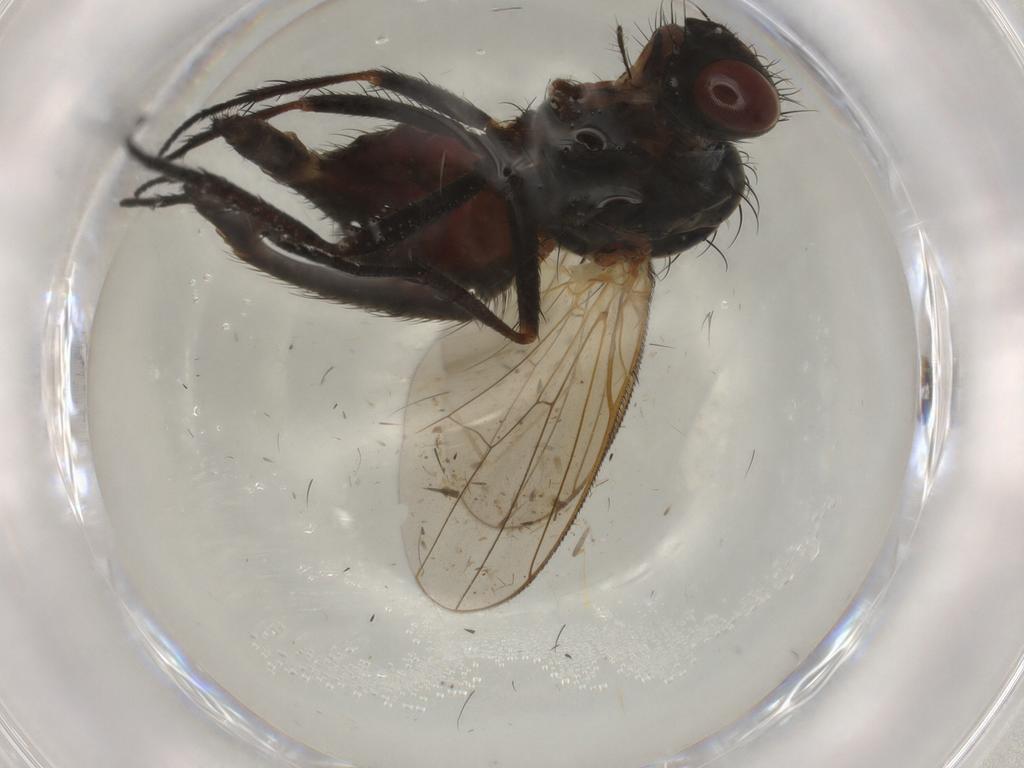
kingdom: Animalia
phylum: Arthropoda
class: Insecta
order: Diptera
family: Anthomyiidae
